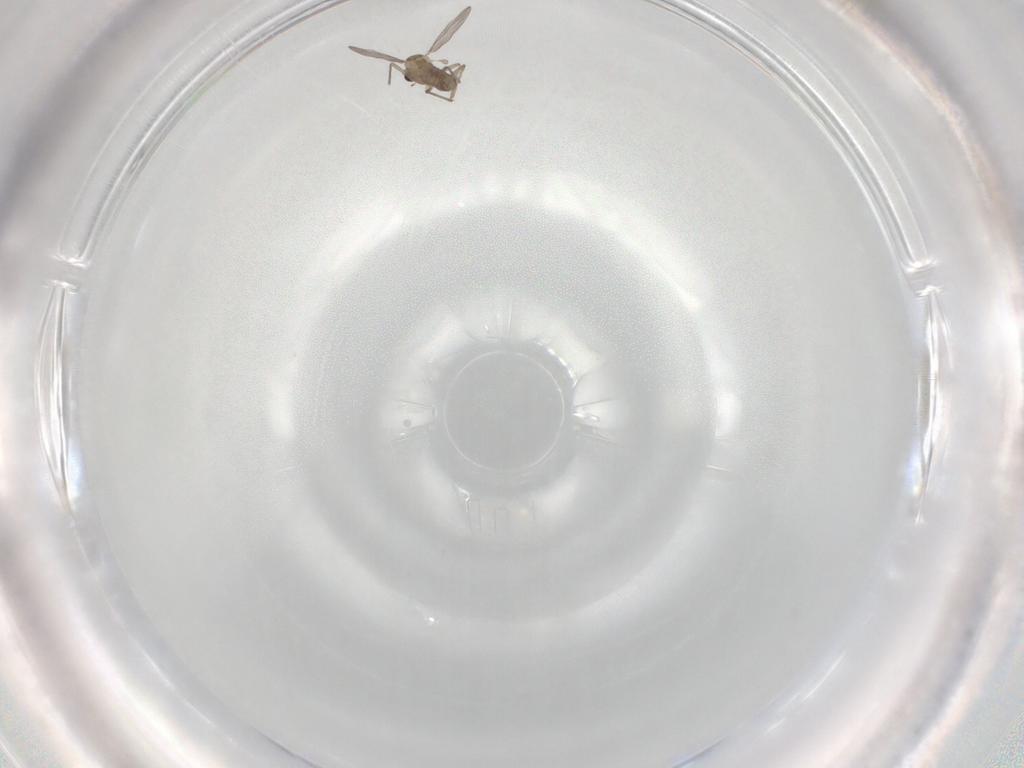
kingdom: Animalia
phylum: Arthropoda
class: Insecta
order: Diptera
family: Chironomidae
